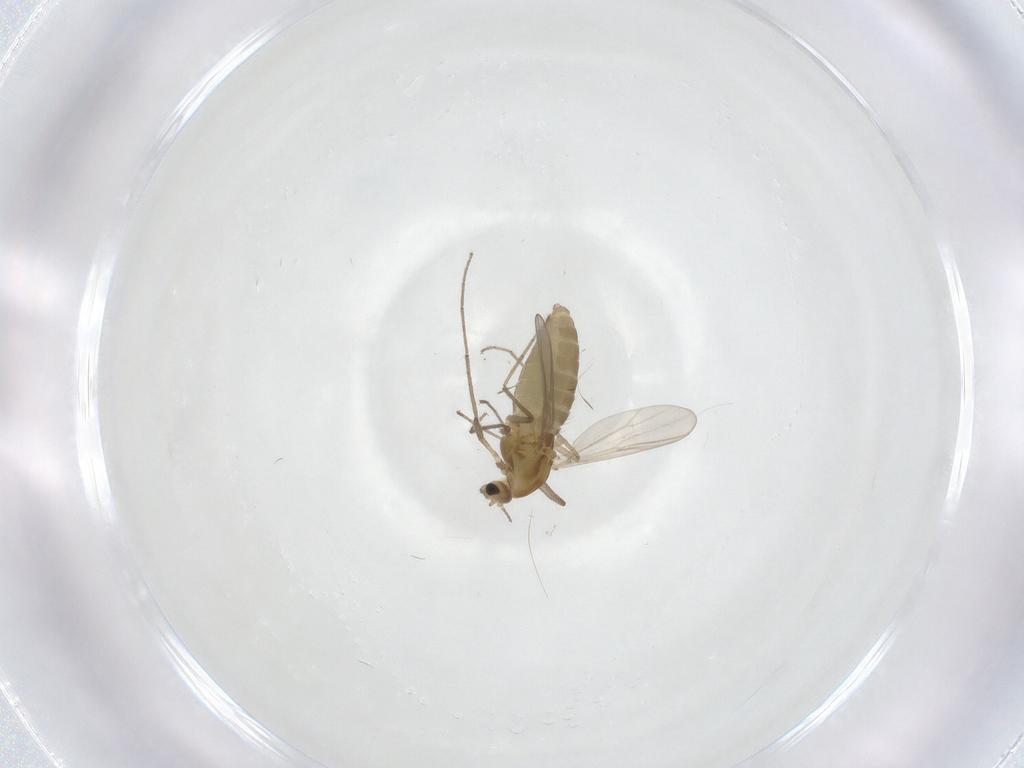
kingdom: Animalia
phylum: Arthropoda
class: Insecta
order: Diptera
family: Chironomidae
